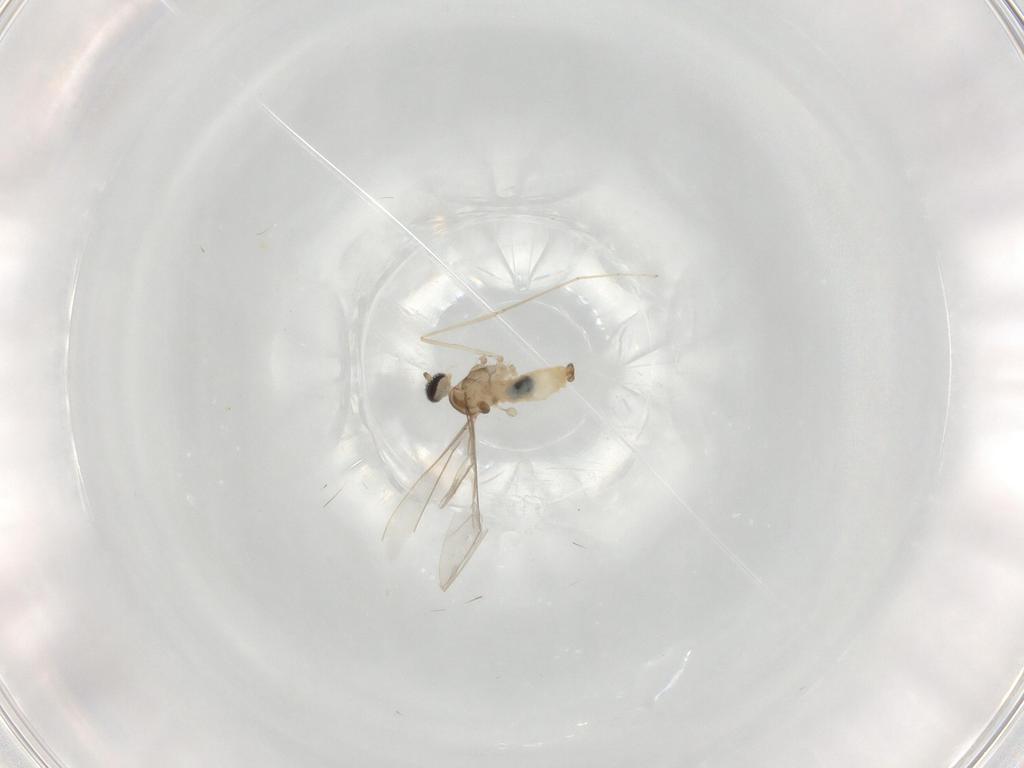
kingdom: Animalia
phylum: Arthropoda
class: Insecta
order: Diptera
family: Cecidomyiidae
